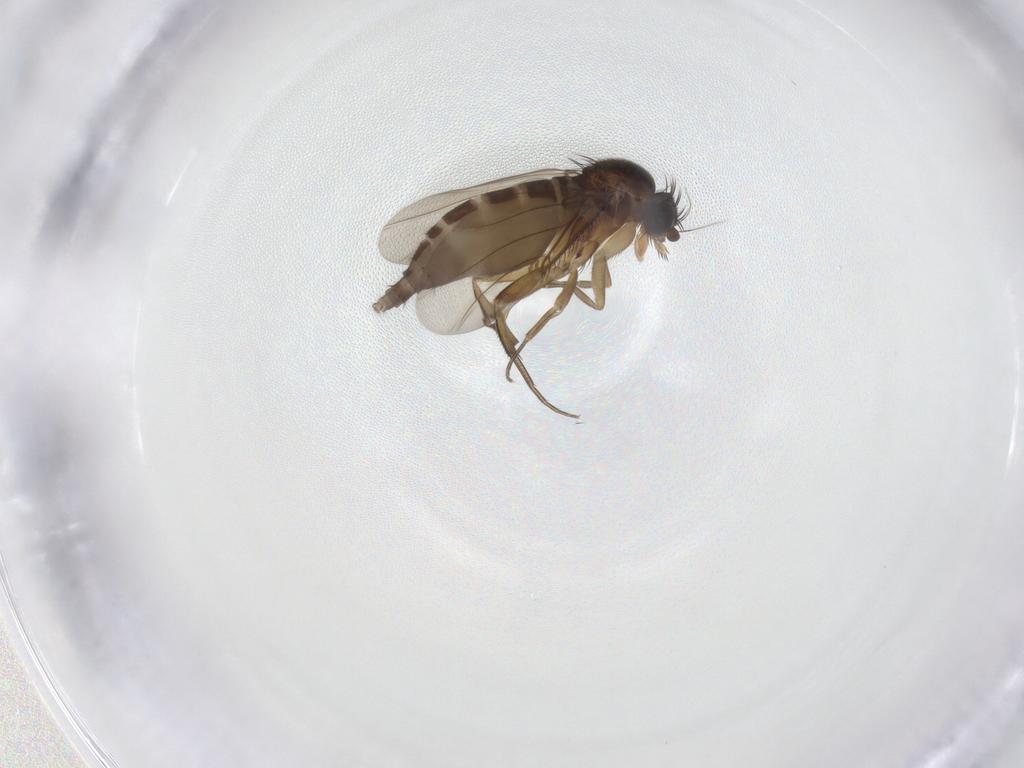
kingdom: Animalia
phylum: Arthropoda
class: Insecta
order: Diptera
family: Phoridae
